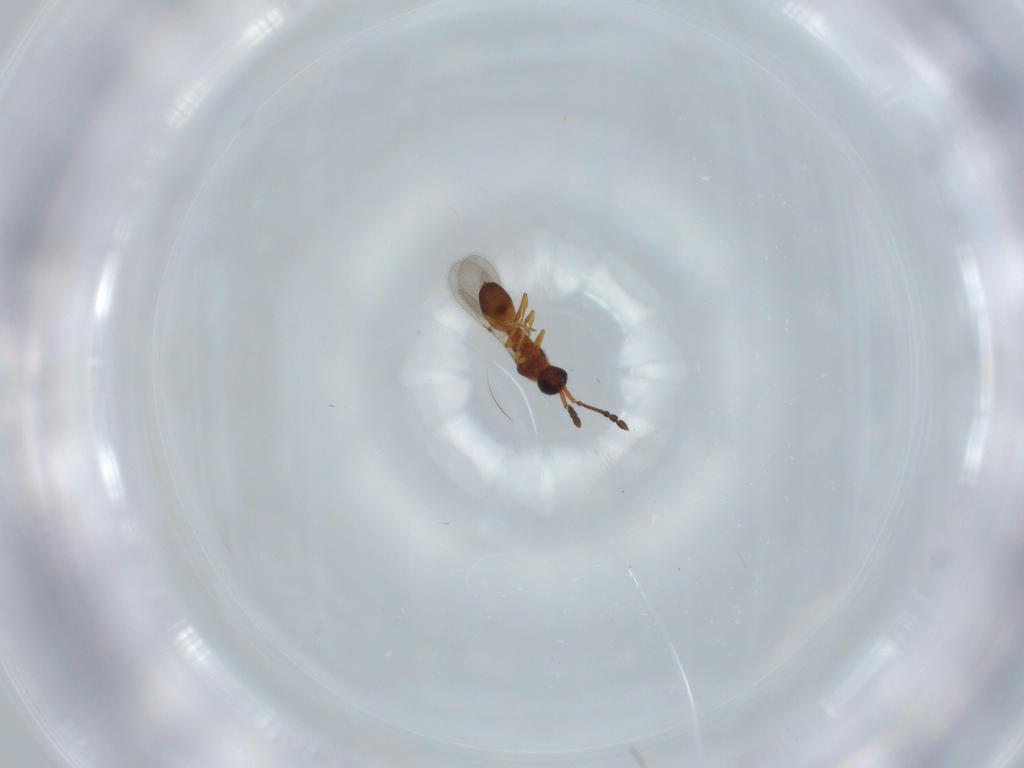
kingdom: Animalia
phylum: Arthropoda
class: Insecta
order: Hymenoptera
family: Diapriidae
